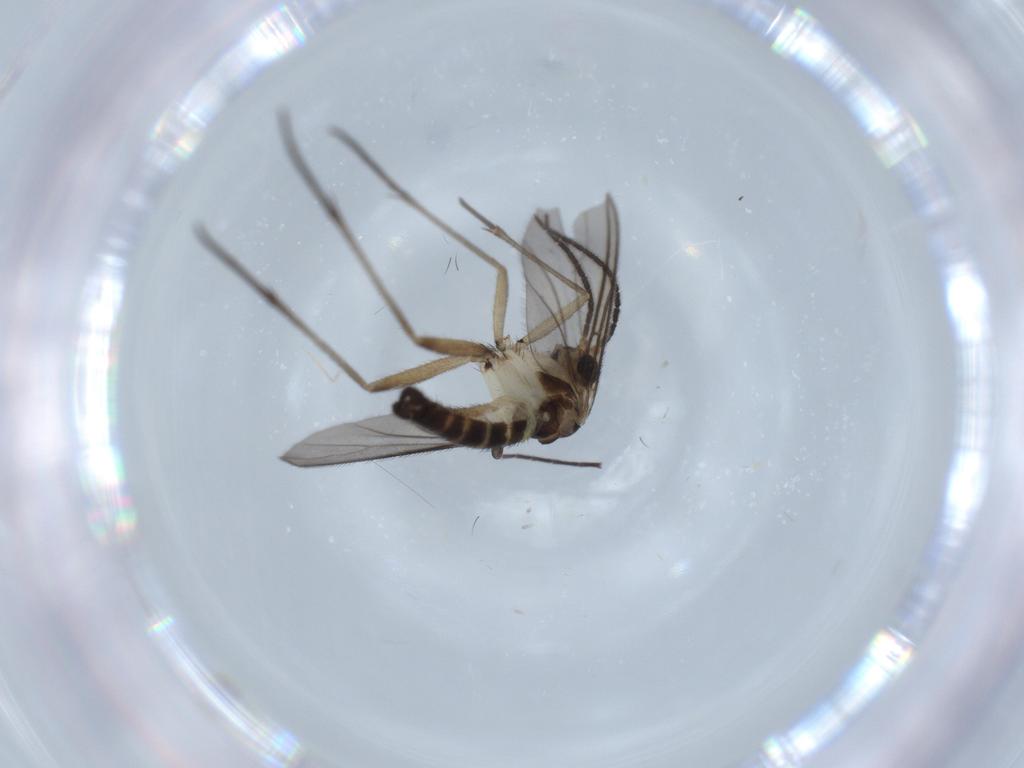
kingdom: Animalia
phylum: Arthropoda
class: Insecta
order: Diptera
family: Sciaridae
